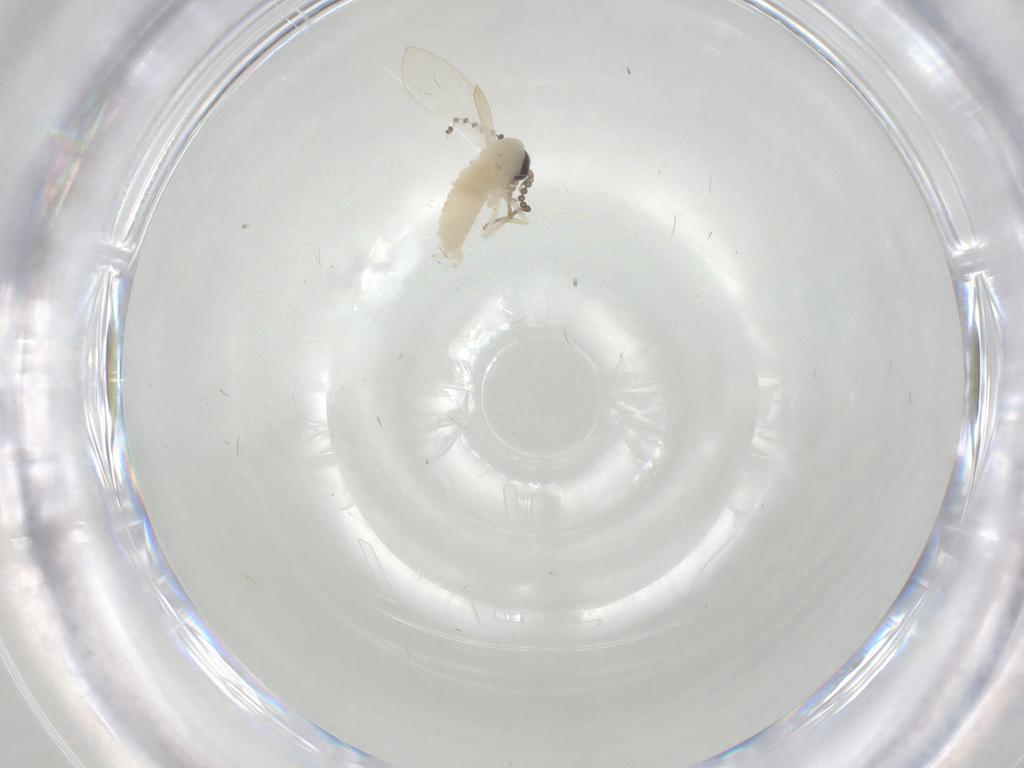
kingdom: Animalia
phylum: Arthropoda
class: Insecta
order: Diptera
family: Psychodidae
